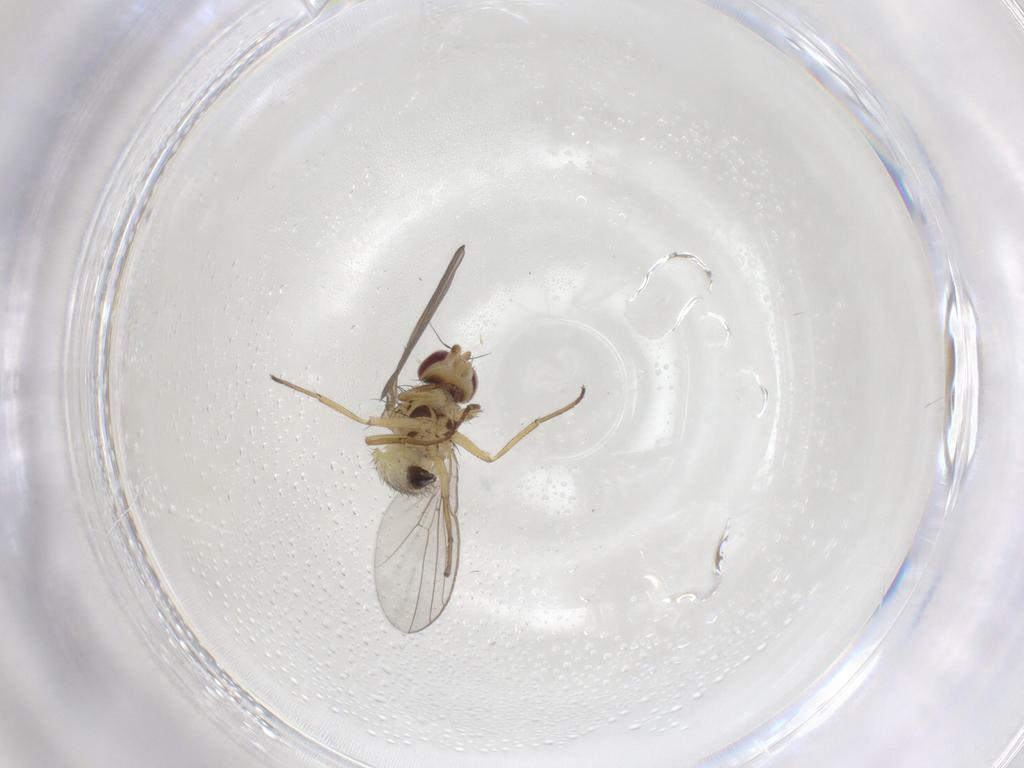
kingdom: Animalia
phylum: Arthropoda
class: Insecta
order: Diptera
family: Agromyzidae
